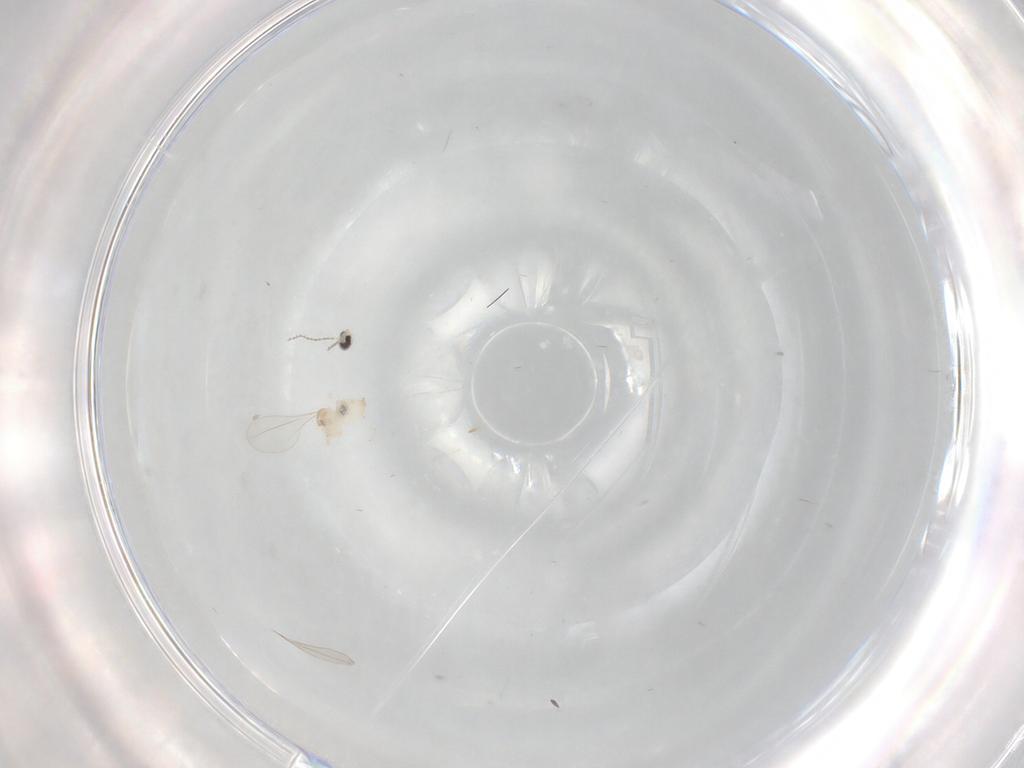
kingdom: Animalia
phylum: Arthropoda
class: Insecta
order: Diptera
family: Cecidomyiidae
